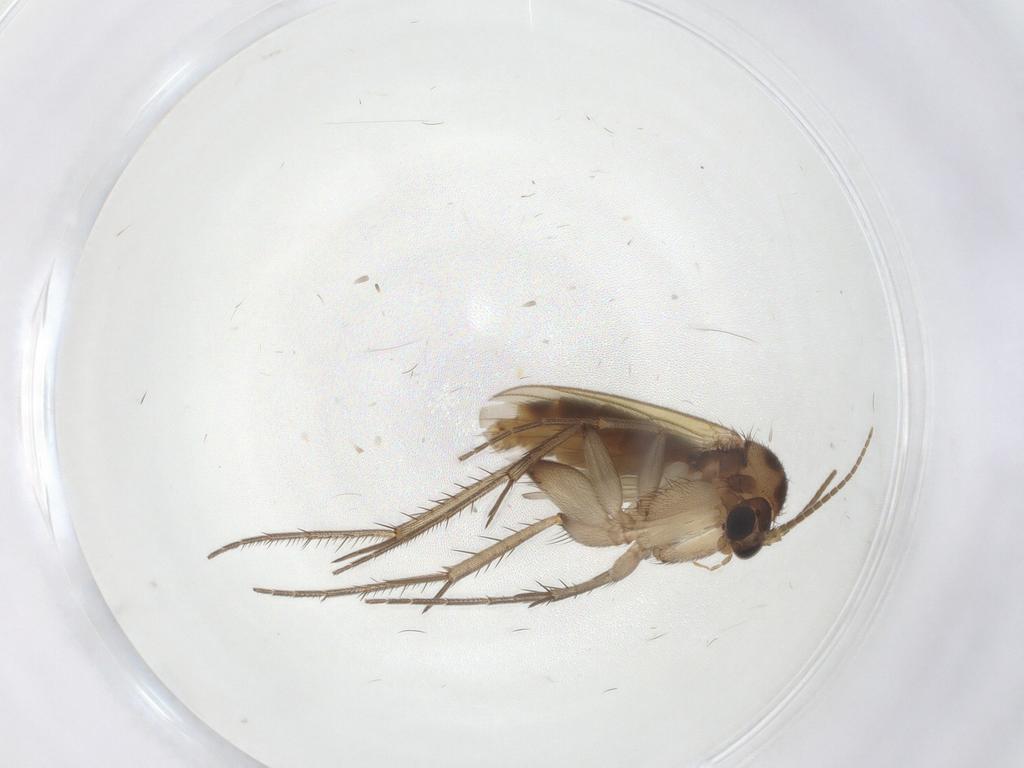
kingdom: Animalia
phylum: Arthropoda
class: Insecta
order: Diptera
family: Mycetophilidae
